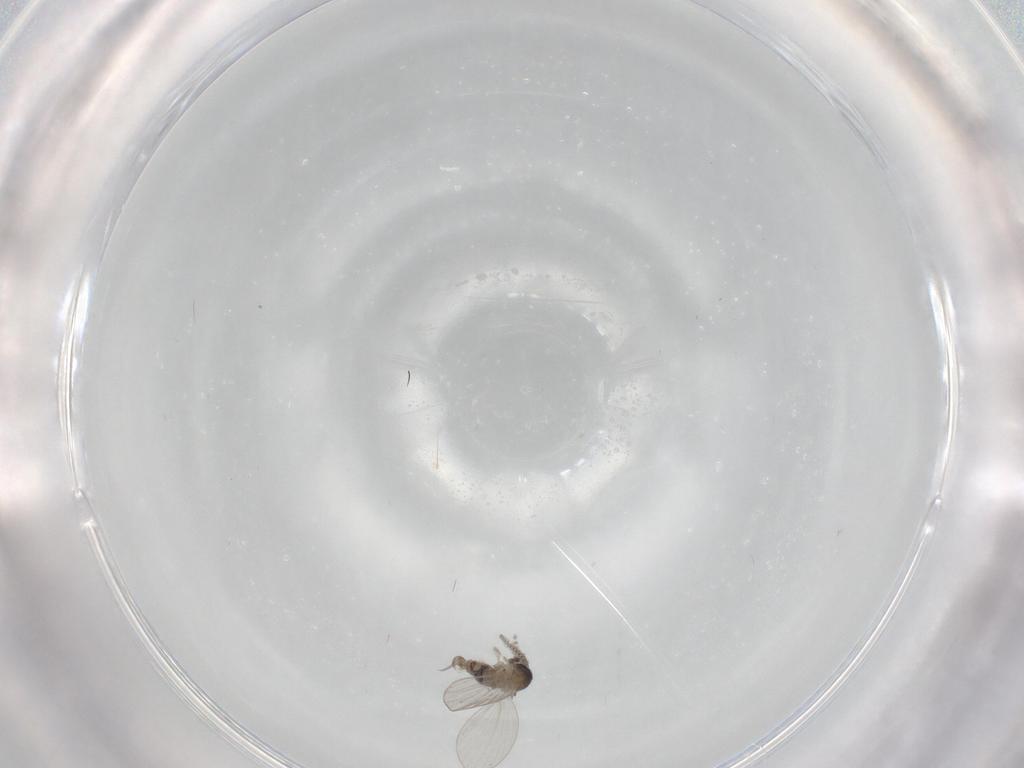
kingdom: Animalia
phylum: Arthropoda
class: Insecta
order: Diptera
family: Psychodidae
